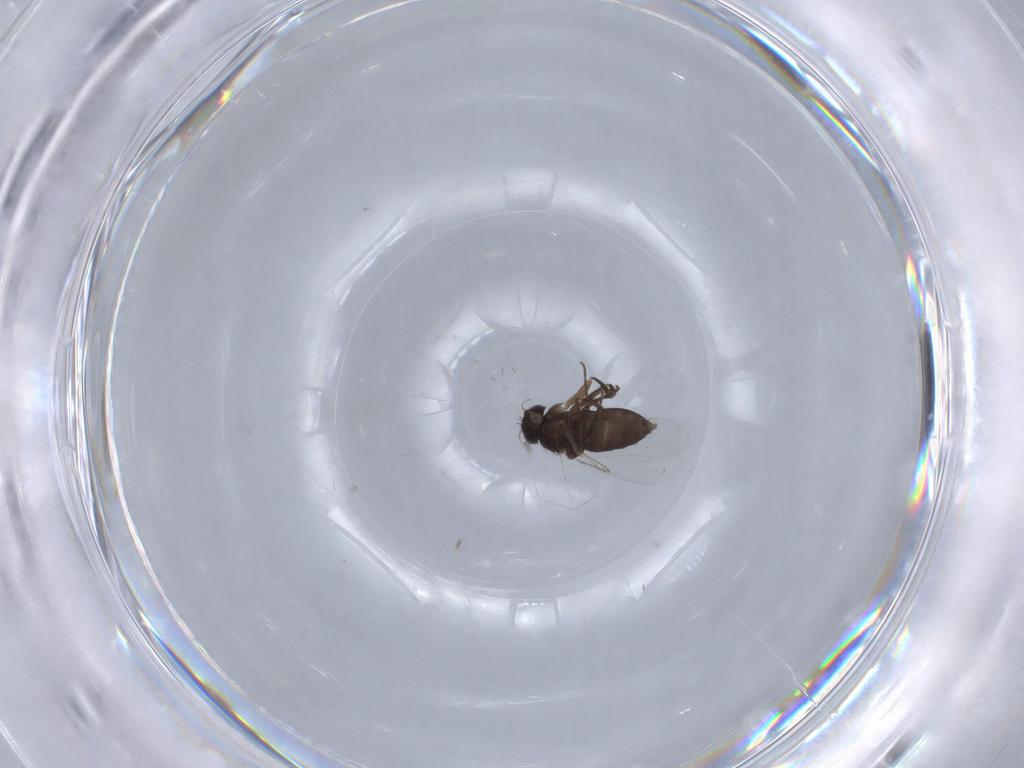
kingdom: Animalia
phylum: Arthropoda
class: Insecta
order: Diptera
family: Phoridae
